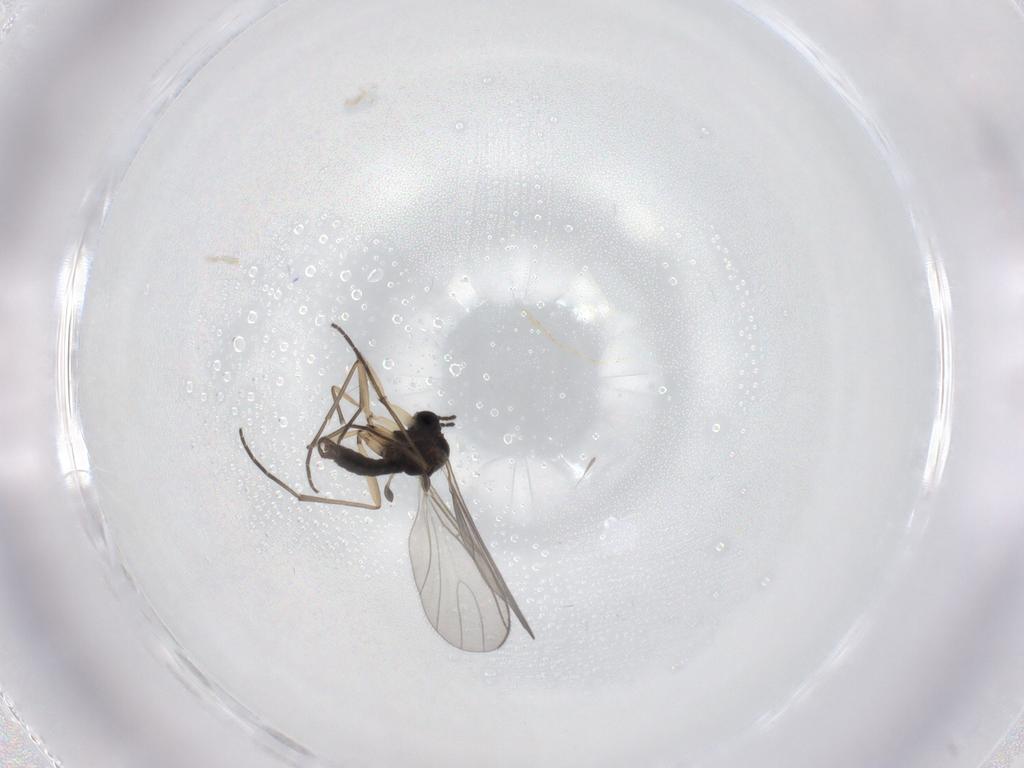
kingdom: Animalia
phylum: Arthropoda
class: Insecta
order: Diptera
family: Sciaridae
